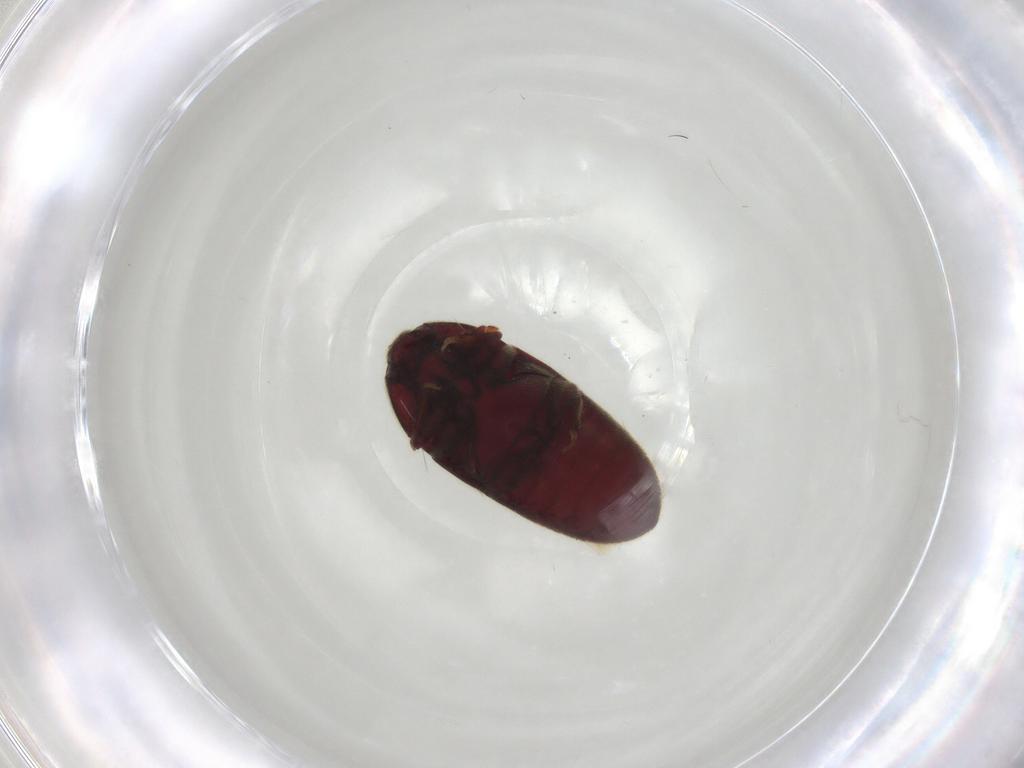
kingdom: Animalia
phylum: Arthropoda
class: Insecta
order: Coleoptera
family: Throscidae
